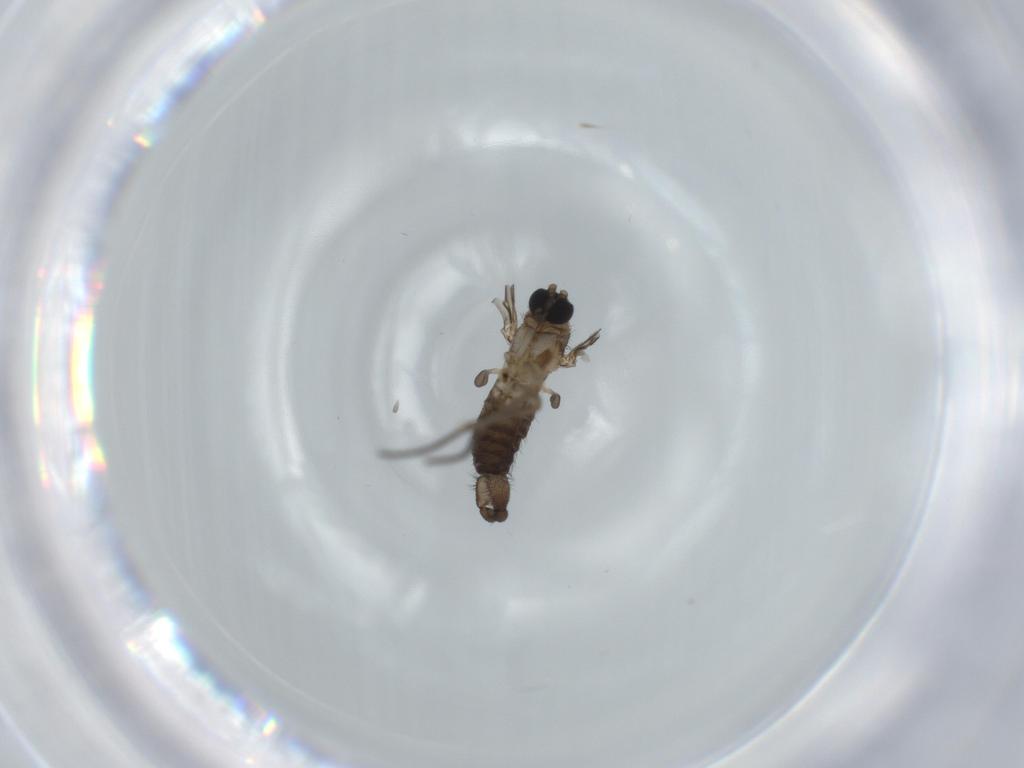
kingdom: Animalia
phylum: Arthropoda
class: Insecta
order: Diptera
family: Sciaridae
